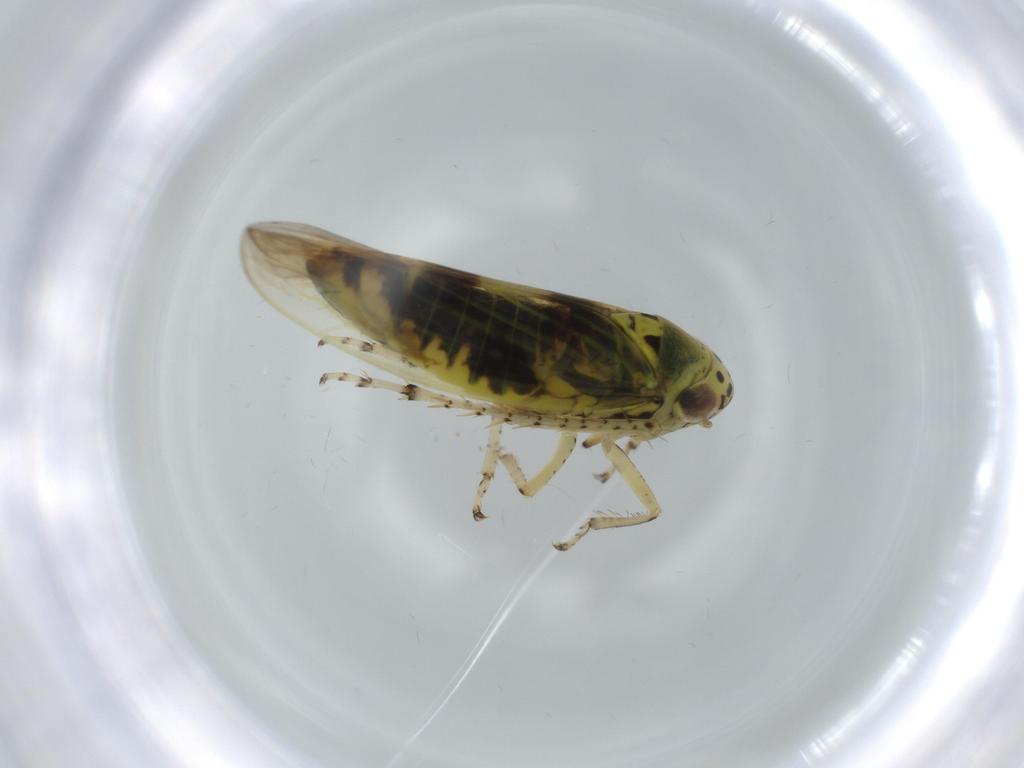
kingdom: Animalia
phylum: Arthropoda
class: Insecta
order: Hemiptera
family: Cicadellidae
